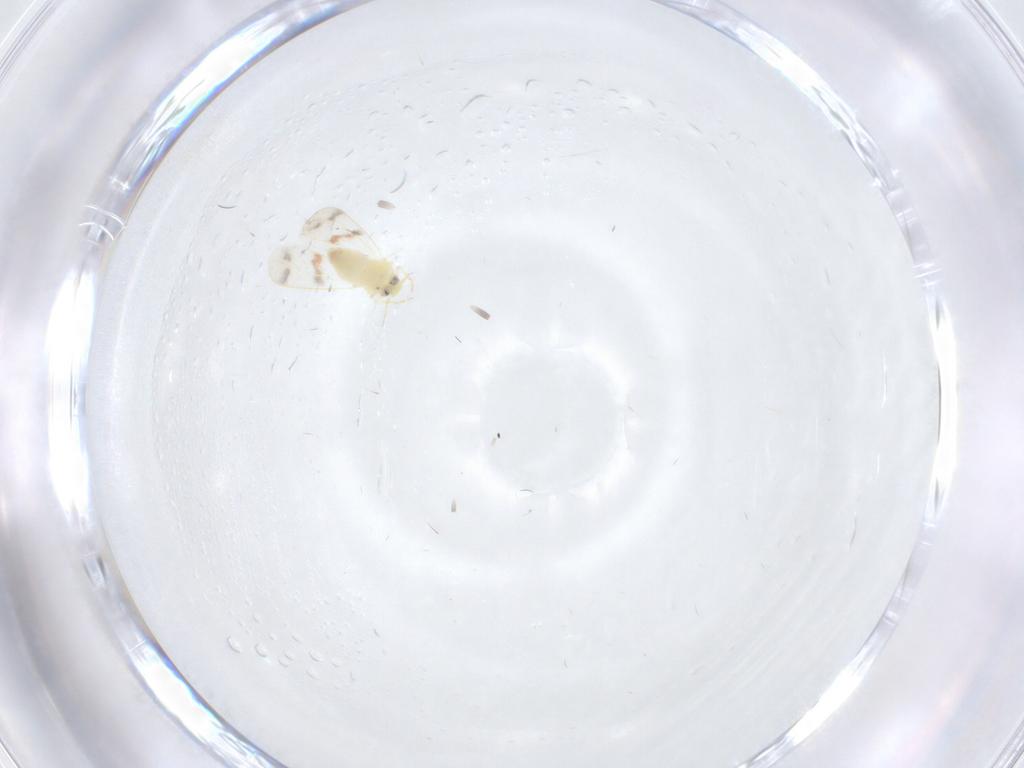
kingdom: Animalia
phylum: Arthropoda
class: Insecta
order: Hemiptera
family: Aleyrodidae
